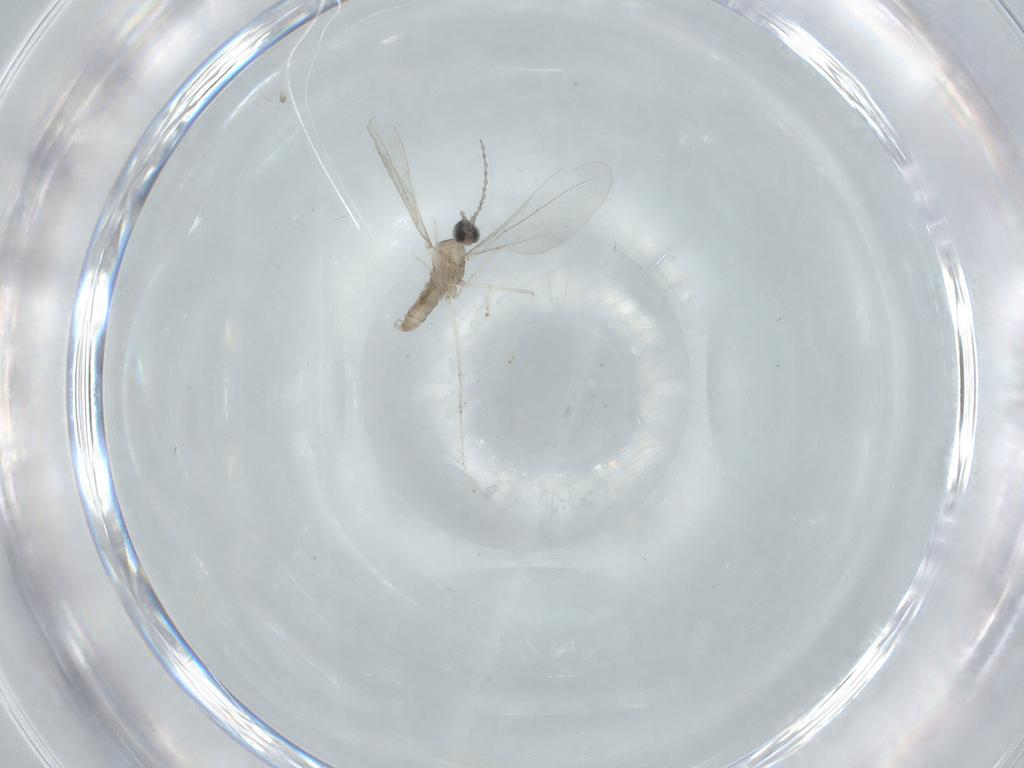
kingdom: Animalia
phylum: Arthropoda
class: Insecta
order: Diptera
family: Cecidomyiidae
